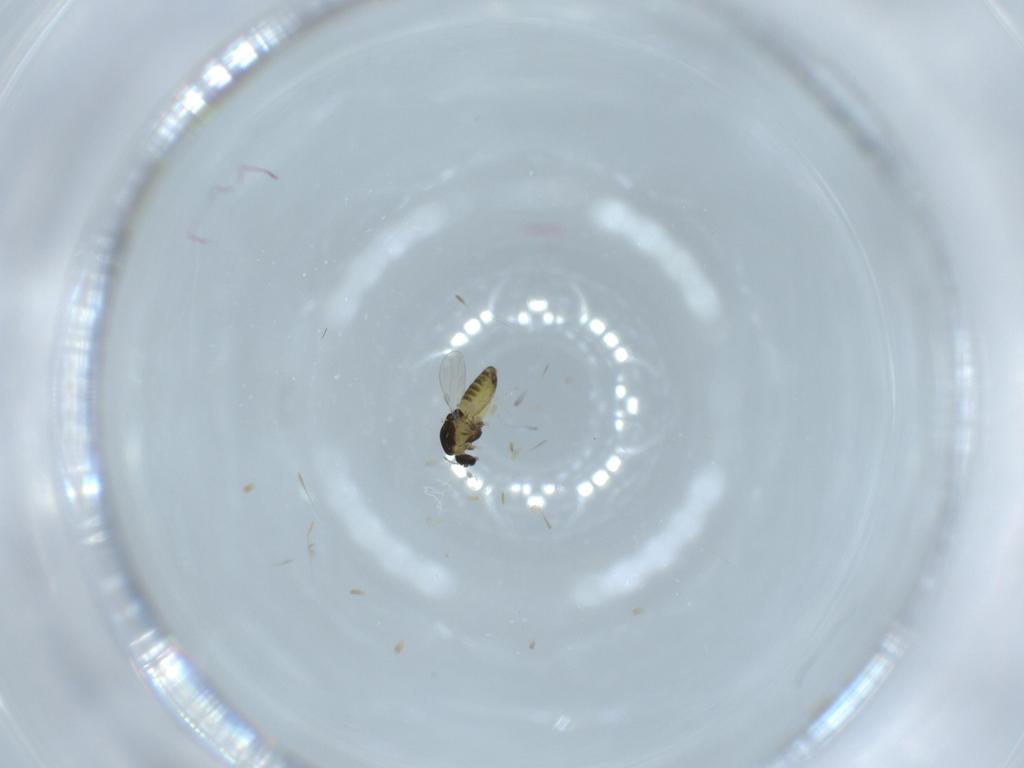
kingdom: Animalia
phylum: Arthropoda
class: Insecta
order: Diptera
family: Chironomidae
